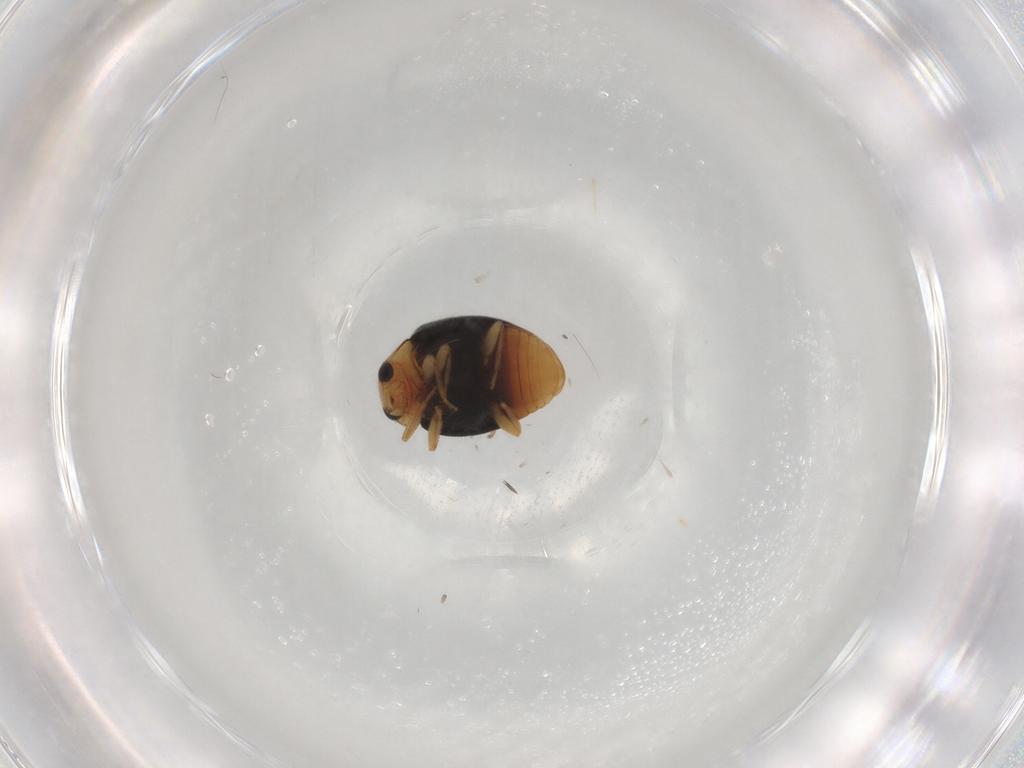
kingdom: Animalia
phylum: Arthropoda
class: Insecta
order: Coleoptera
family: Coccinellidae
